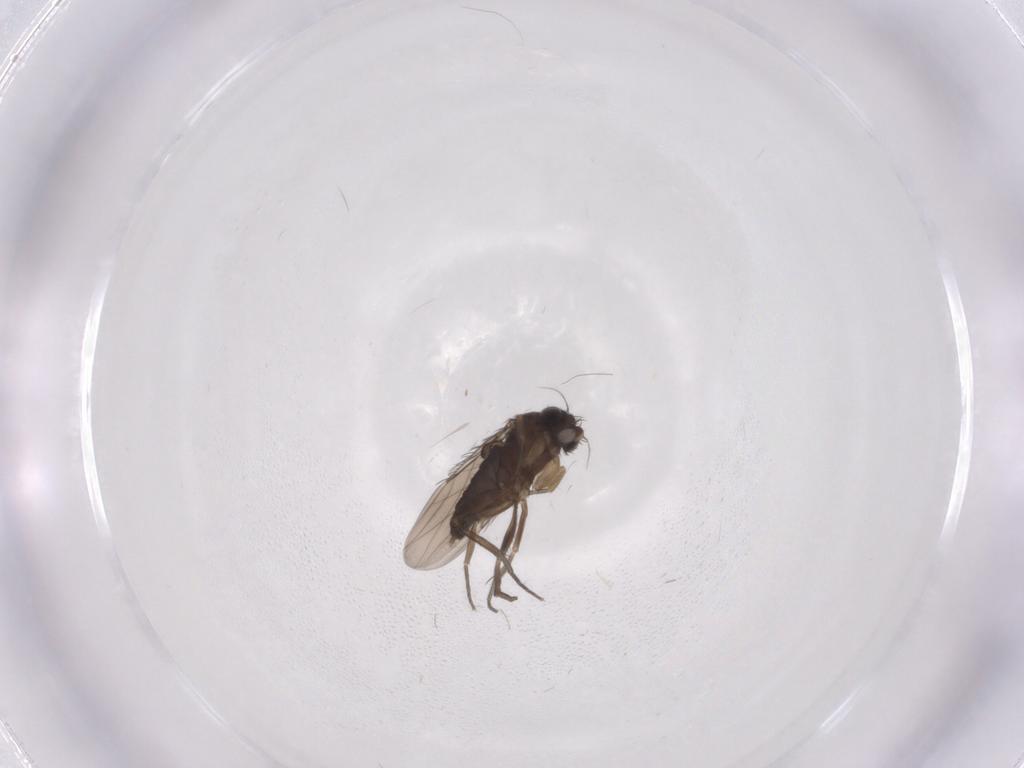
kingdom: Animalia
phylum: Arthropoda
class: Insecta
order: Diptera
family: Phoridae
